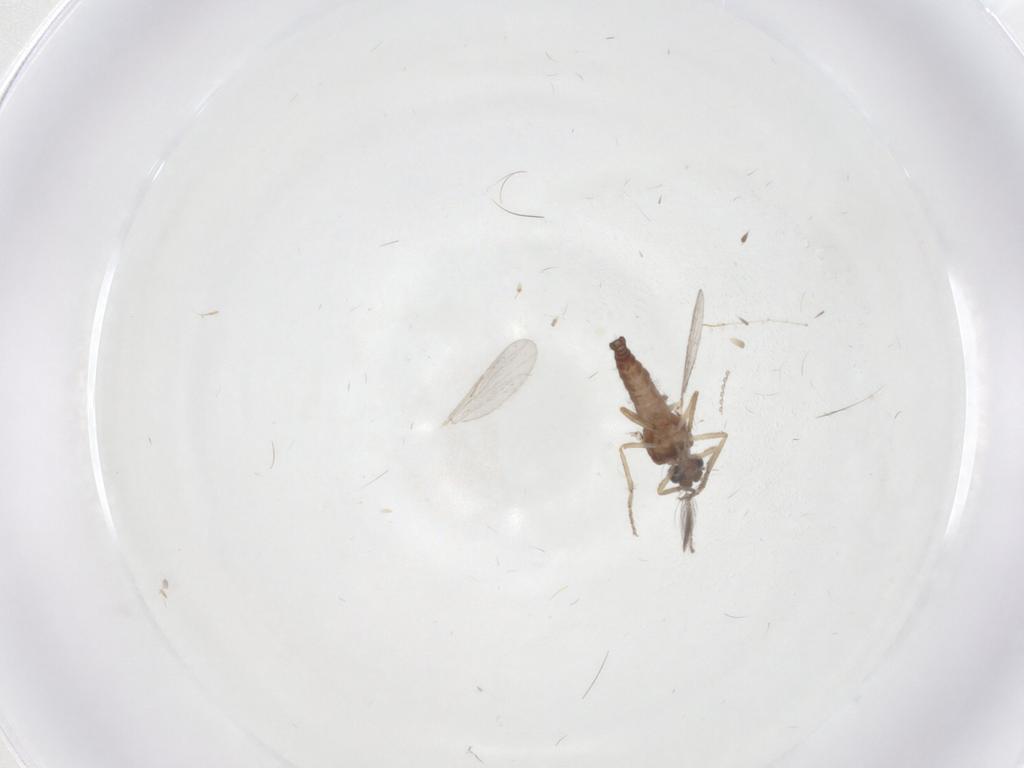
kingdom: Animalia
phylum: Arthropoda
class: Insecta
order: Diptera
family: Ceratopogonidae
